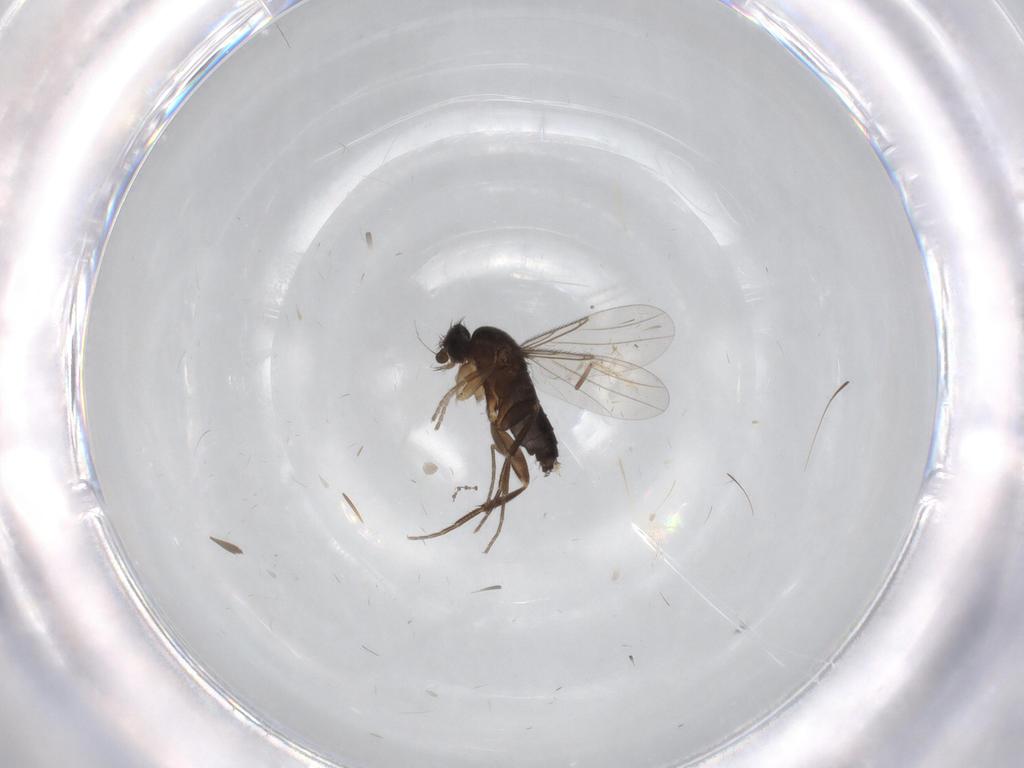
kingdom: Animalia
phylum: Arthropoda
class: Insecta
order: Diptera
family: Phoridae
